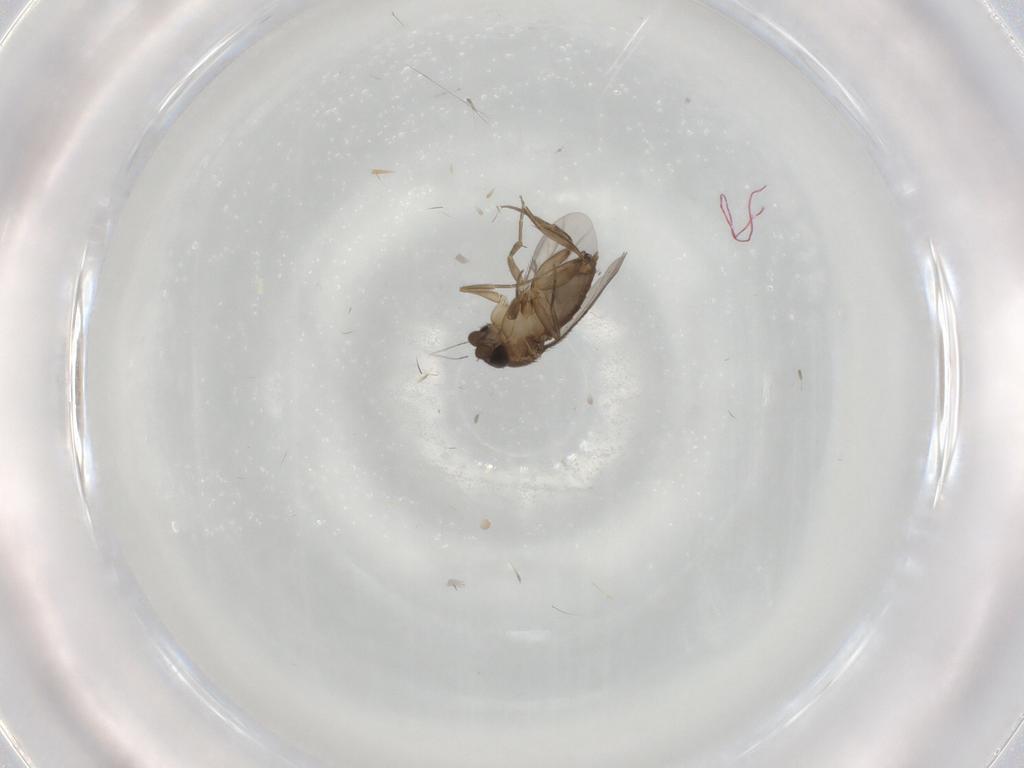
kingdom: Animalia
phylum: Arthropoda
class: Insecta
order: Diptera
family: Phoridae
